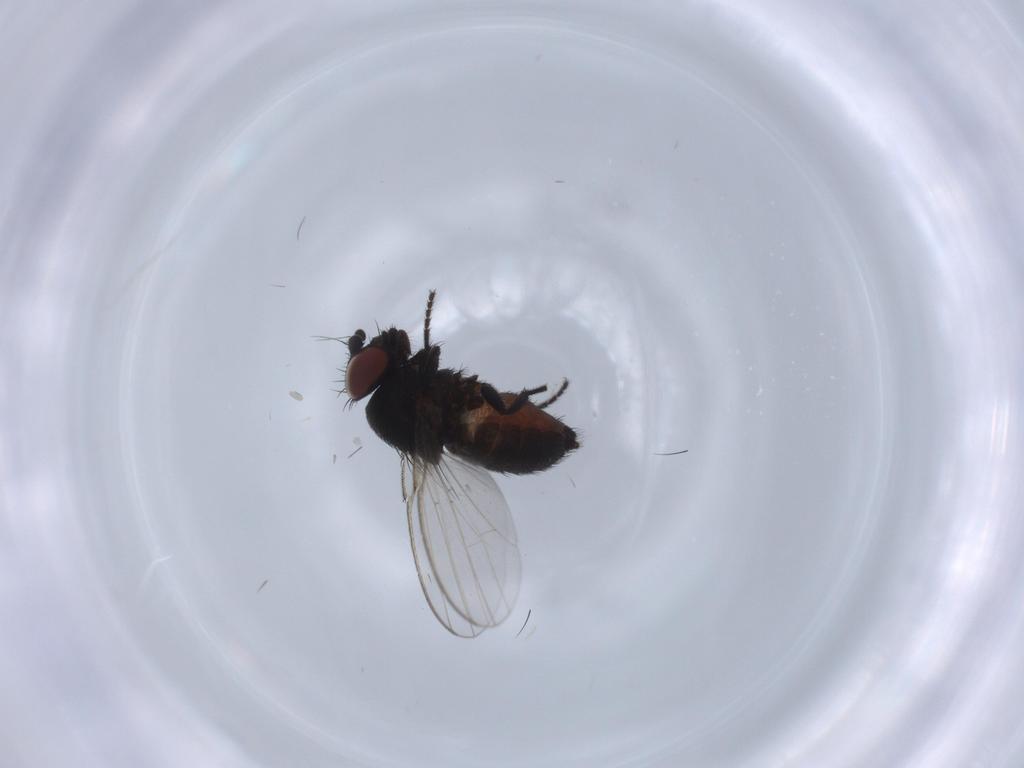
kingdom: Animalia
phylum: Arthropoda
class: Insecta
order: Diptera
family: Milichiidae
